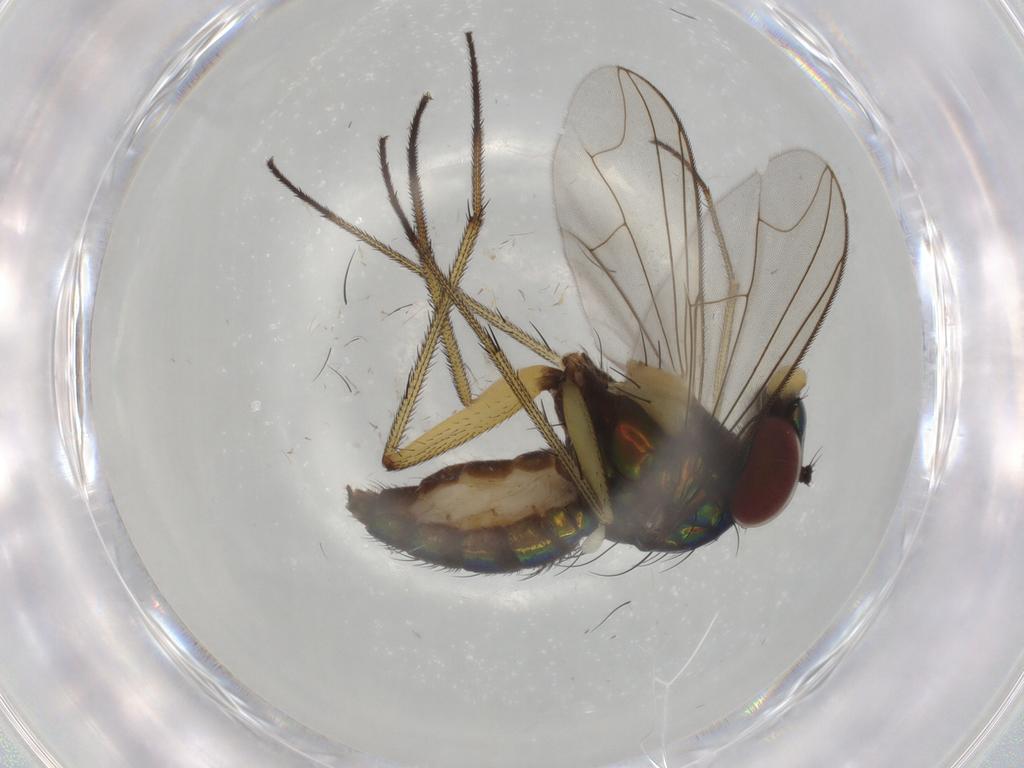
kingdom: Animalia
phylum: Arthropoda
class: Insecta
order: Diptera
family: Dolichopodidae
